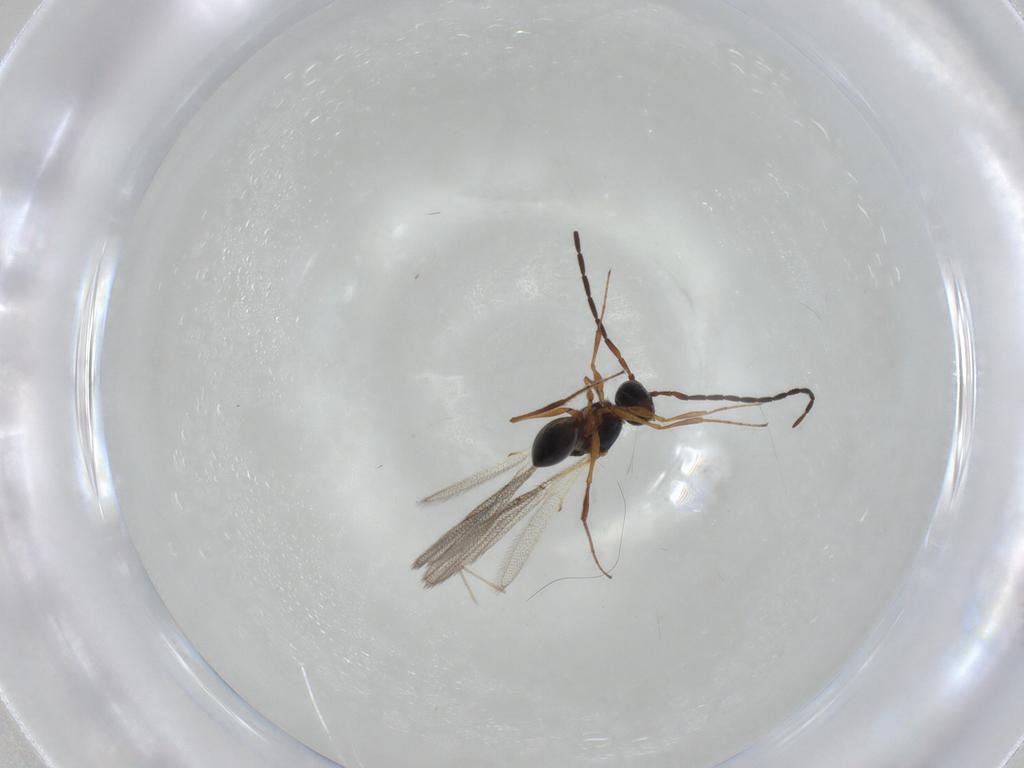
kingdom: Animalia
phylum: Arthropoda
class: Insecta
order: Hymenoptera
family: Figitidae
